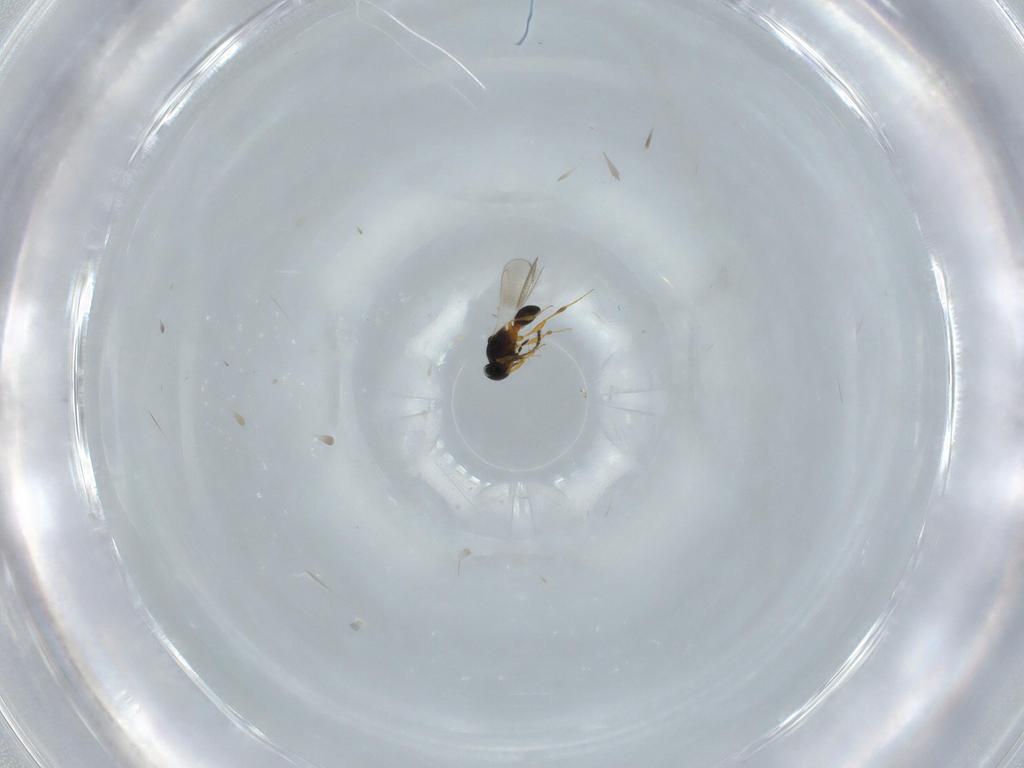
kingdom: Animalia
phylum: Arthropoda
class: Insecta
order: Hymenoptera
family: Platygastridae
